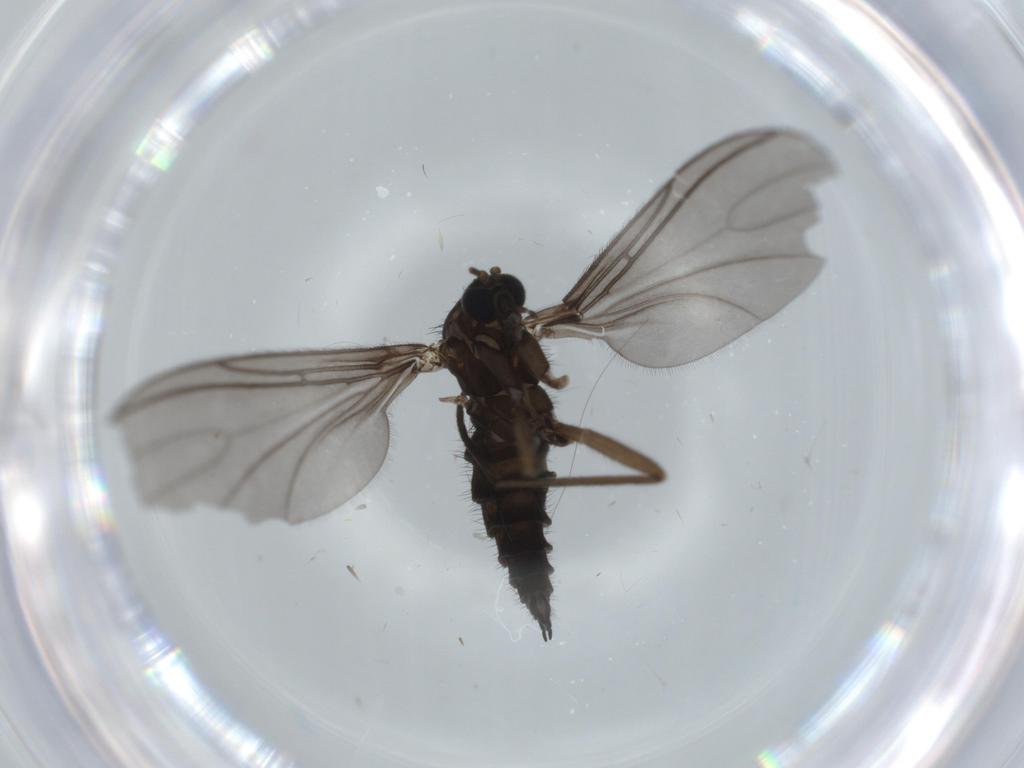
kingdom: Animalia
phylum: Arthropoda
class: Insecta
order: Diptera
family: Sciaridae
